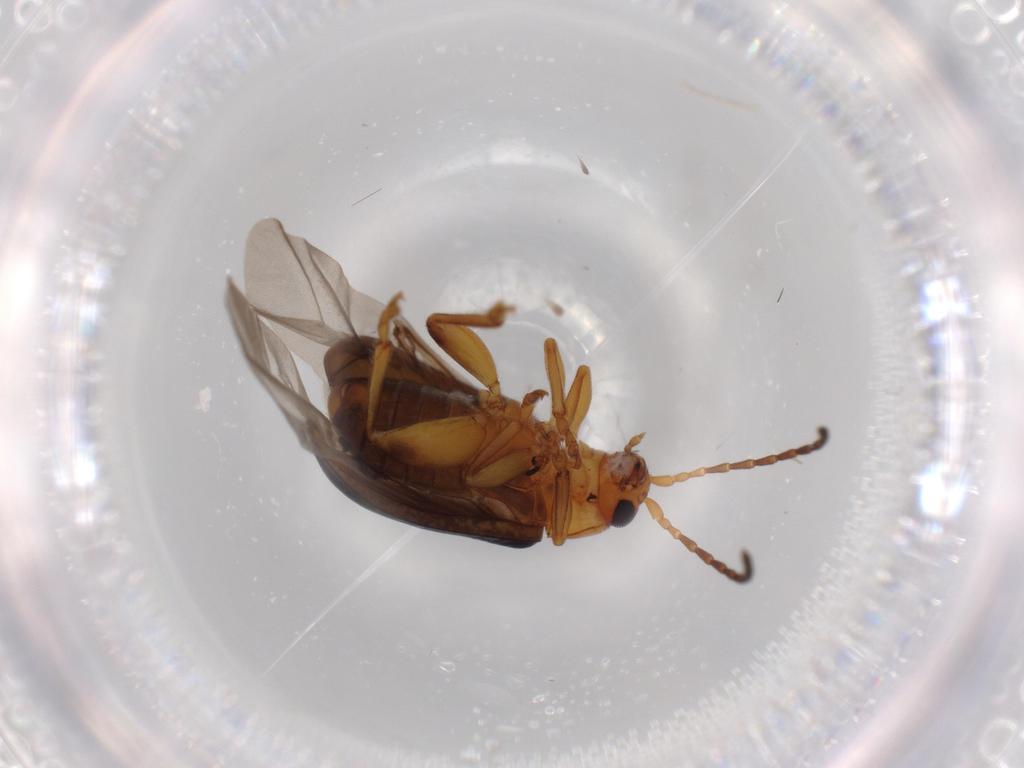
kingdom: Animalia
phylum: Arthropoda
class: Insecta
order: Coleoptera
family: Chrysomelidae
